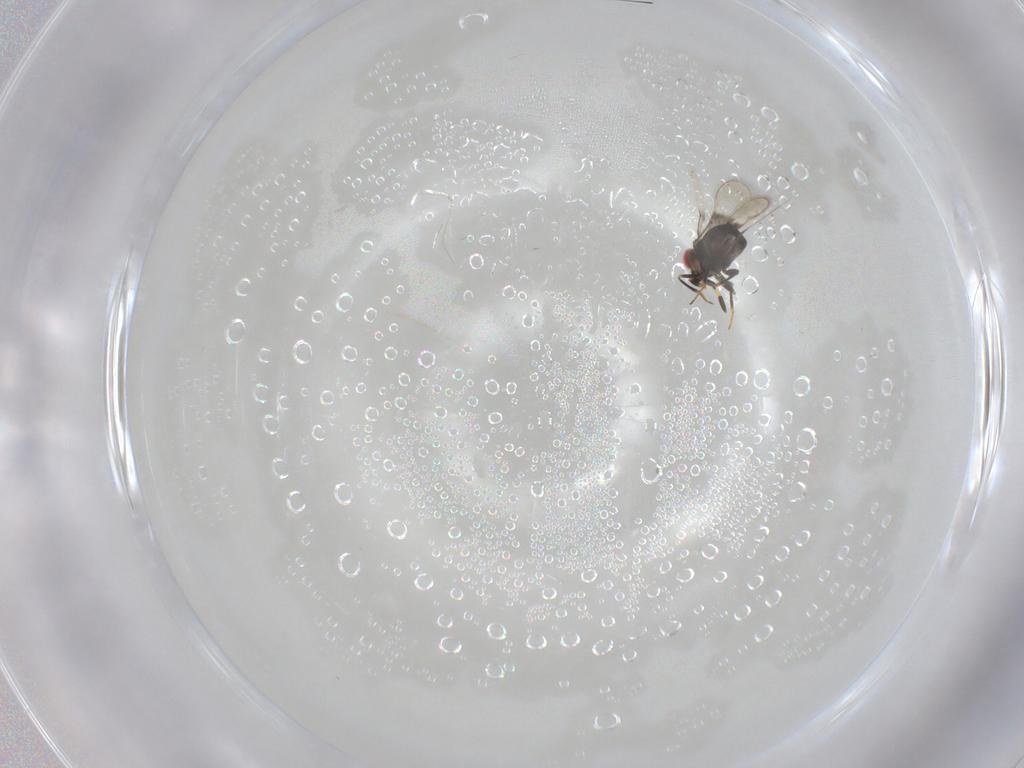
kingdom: Animalia
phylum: Arthropoda
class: Insecta
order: Hymenoptera
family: Azotidae
